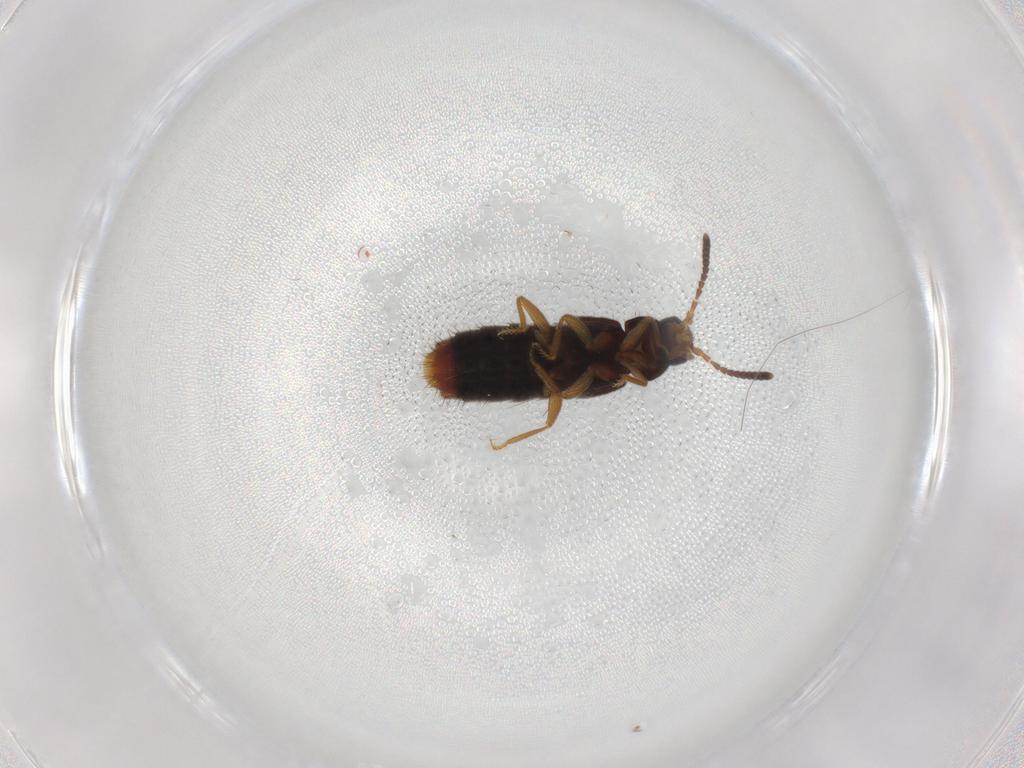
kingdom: Animalia
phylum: Arthropoda
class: Insecta
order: Coleoptera
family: Staphylinidae
